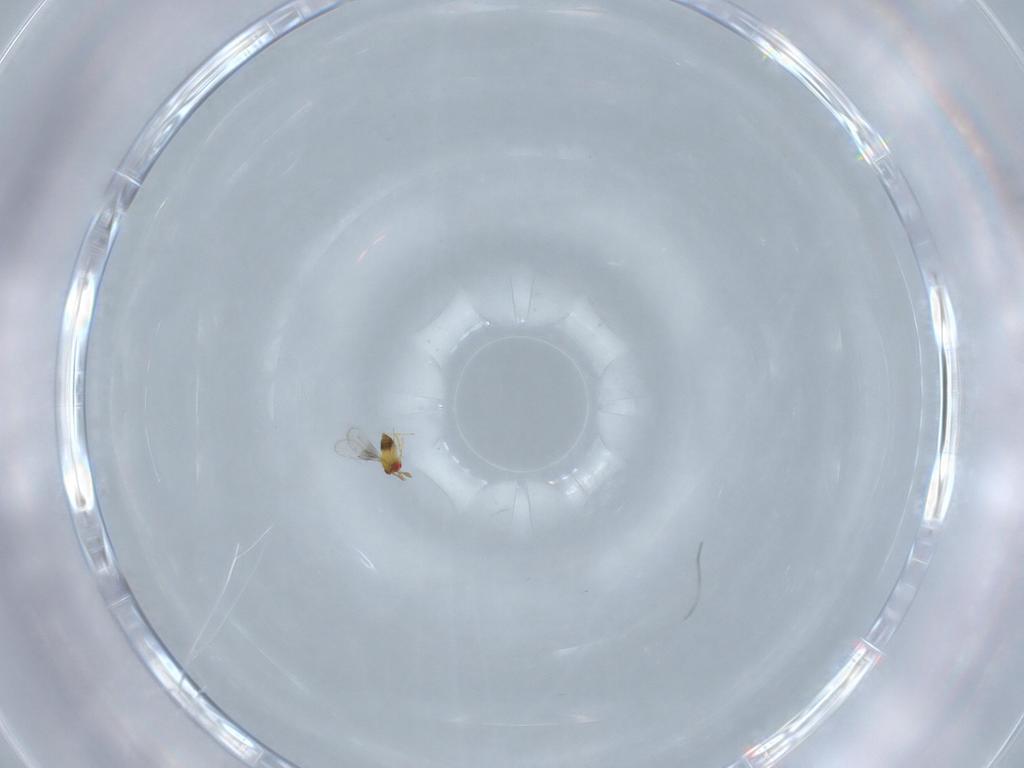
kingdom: Animalia
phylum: Arthropoda
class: Insecta
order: Hymenoptera
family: Trichogrammatidae
